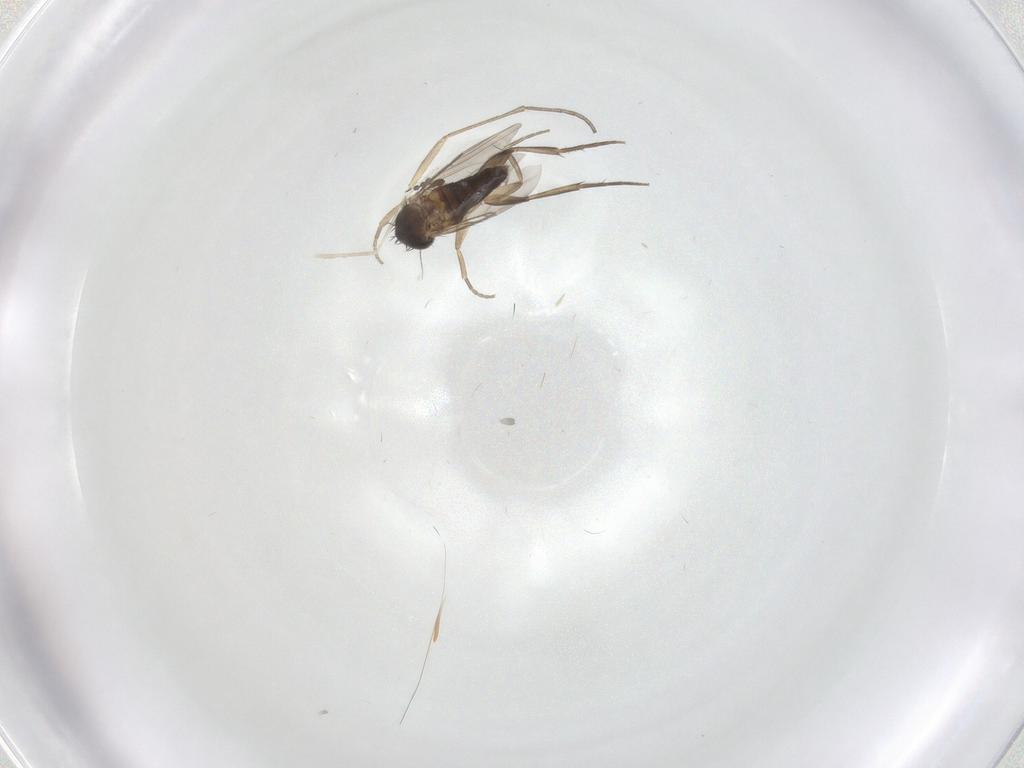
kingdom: Animalia
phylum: Arthropoda
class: Insecta
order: Diptera
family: Phoridae
